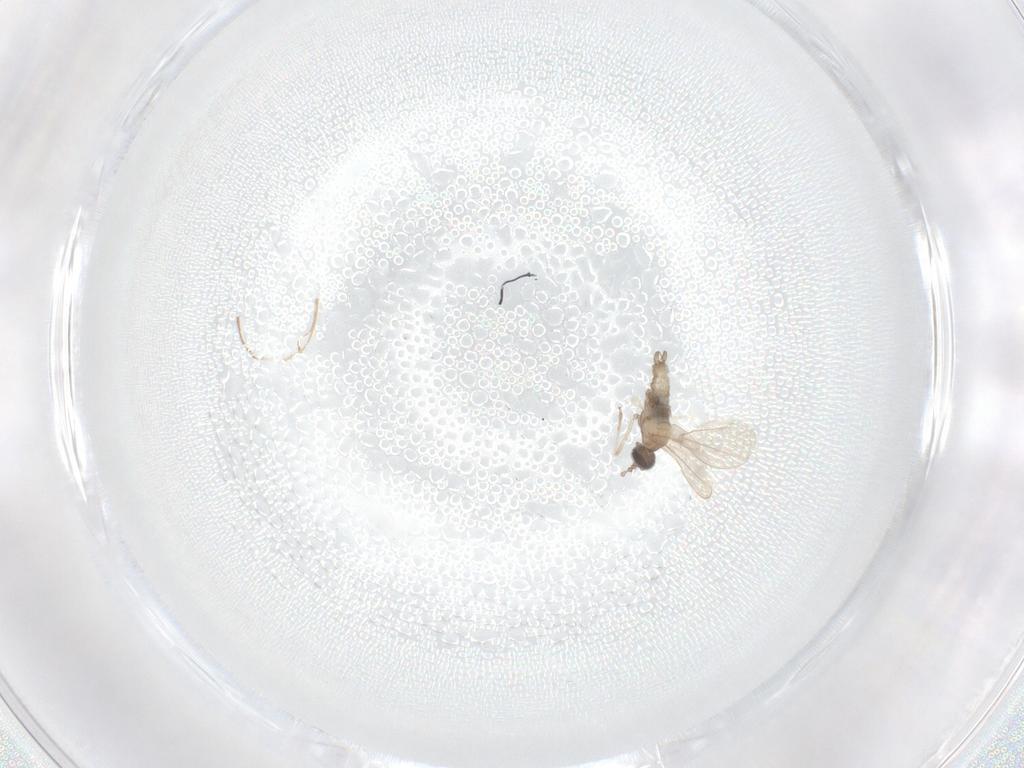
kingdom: Animalia
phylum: Arthropoda
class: Insecta
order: Diptera
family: Cecidomyiidae
